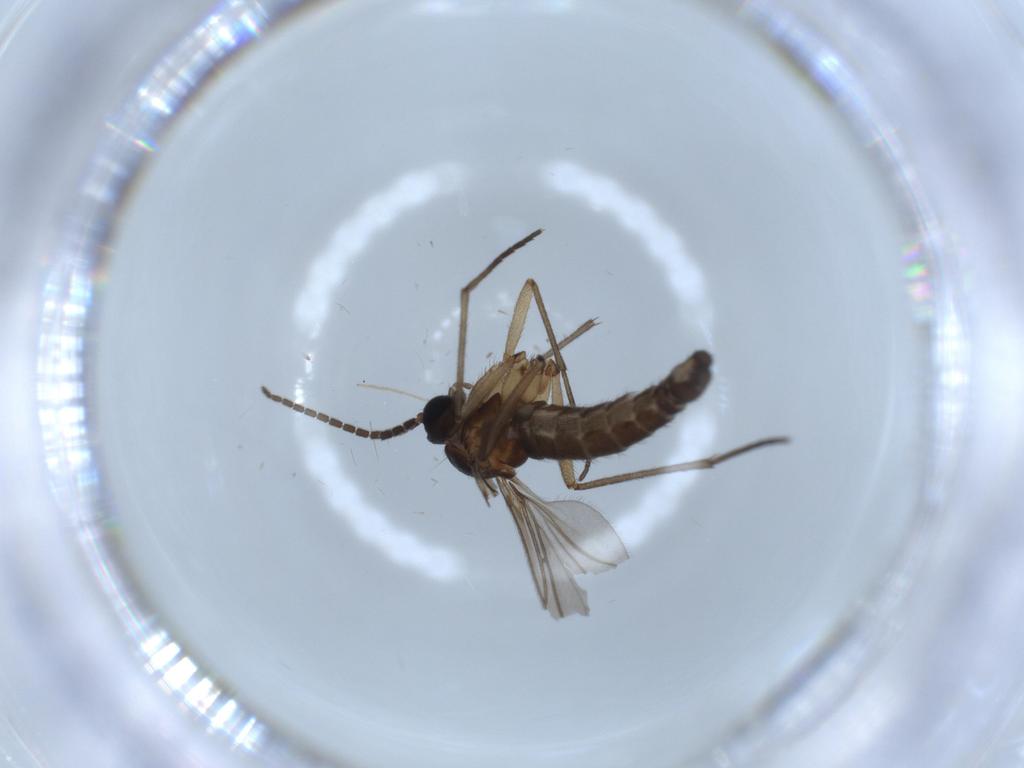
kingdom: Animalia
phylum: Arthropoda
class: Insecta
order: Diptera
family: Sciaridae
